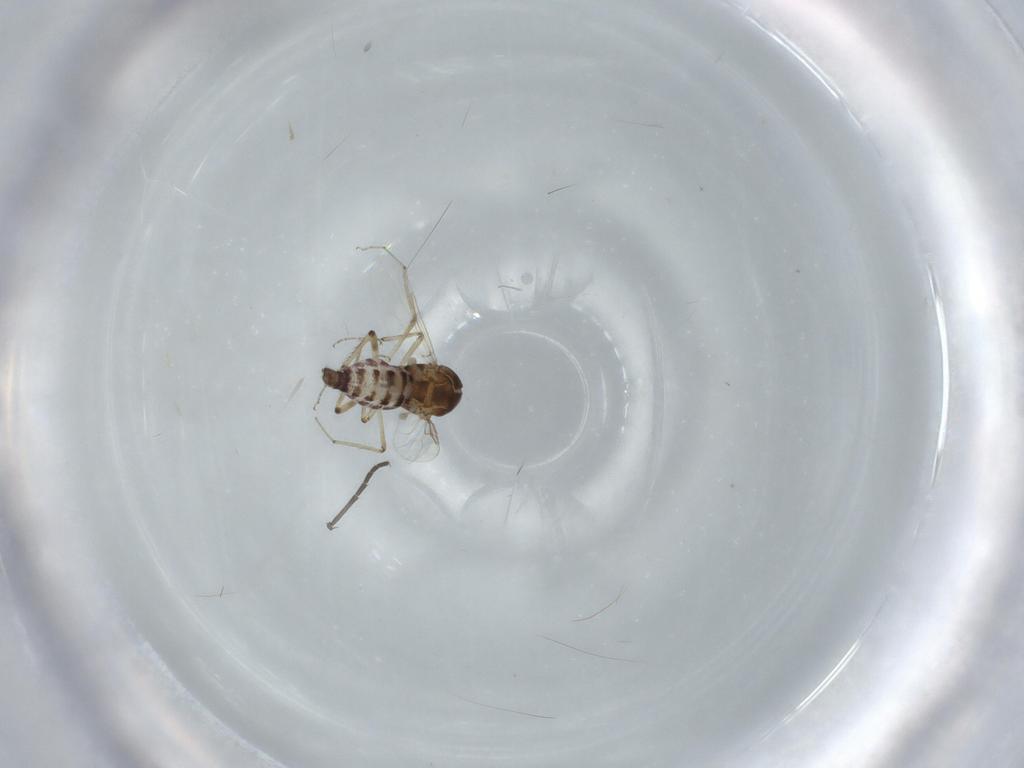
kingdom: Animalia
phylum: Arthropoda
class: Insecta
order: Diptera
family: Ceratopogonidae
